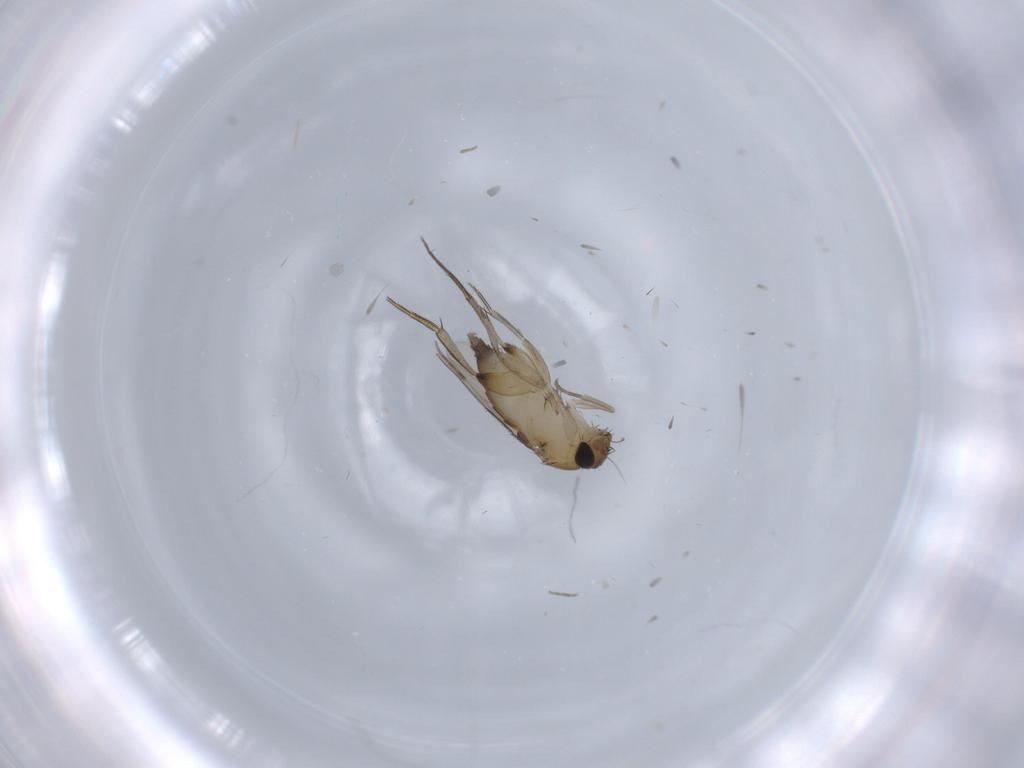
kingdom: Animalia
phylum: Arthropoda
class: Insecta
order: Diptera
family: Phoridae
